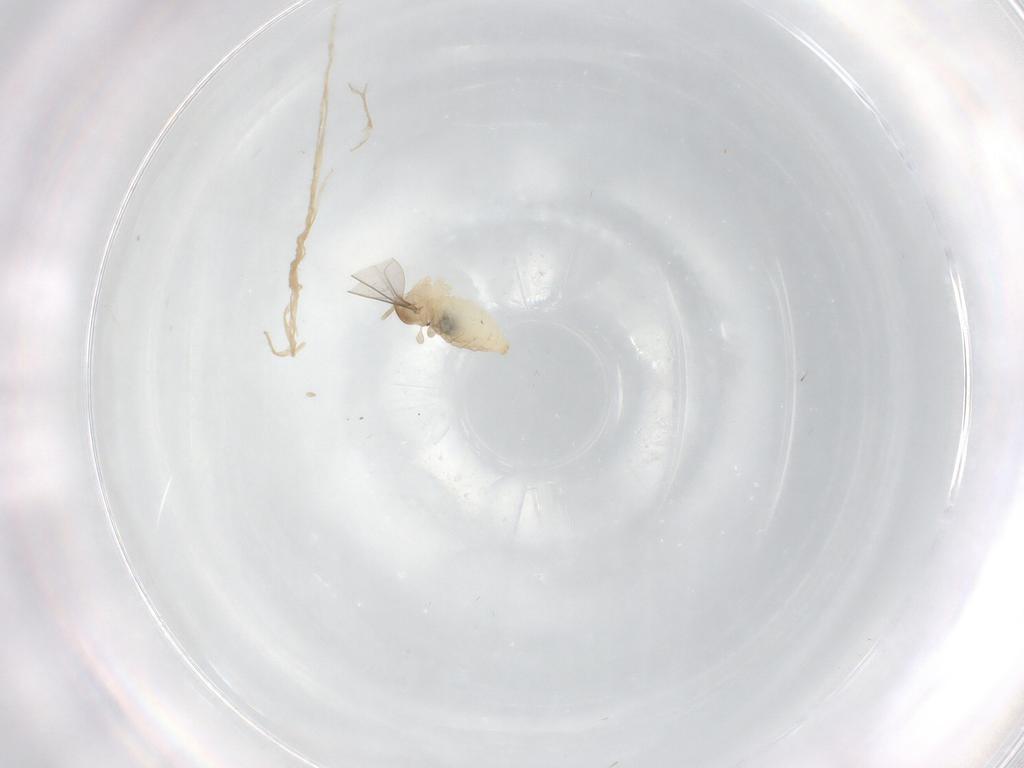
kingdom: Animalia
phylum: Arthropoda
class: Insecta
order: Diptera
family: Cecidomyiidae
